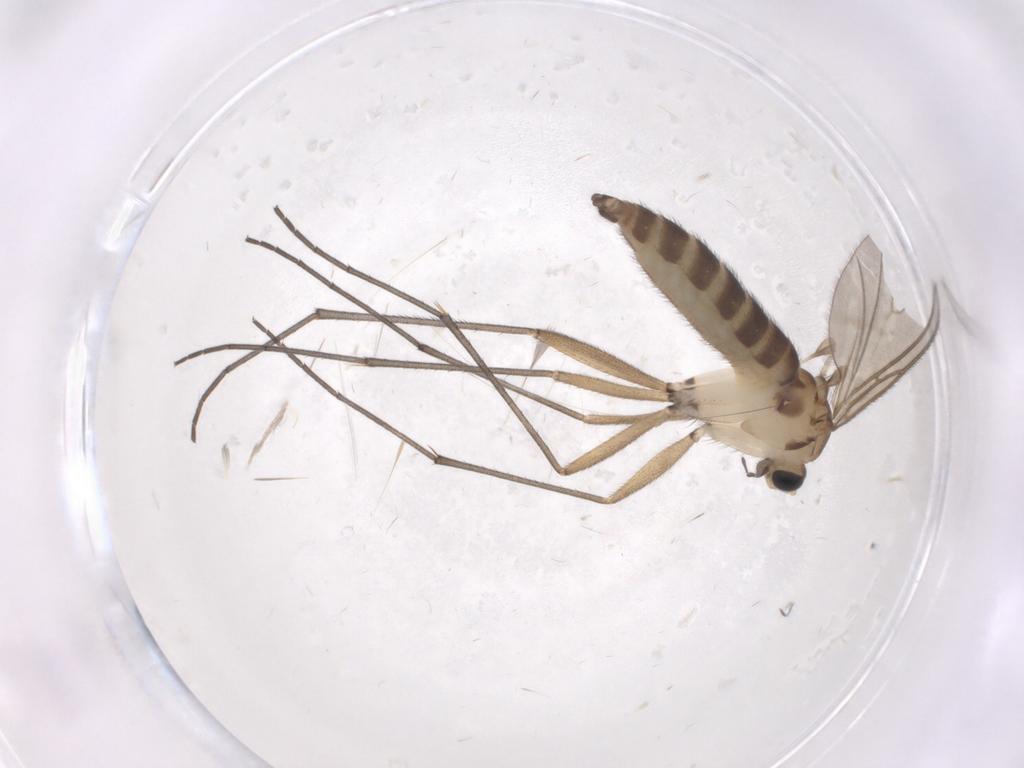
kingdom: Animalia
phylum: Arthropoda
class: Insecta
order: Diptera
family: Sciaridae
